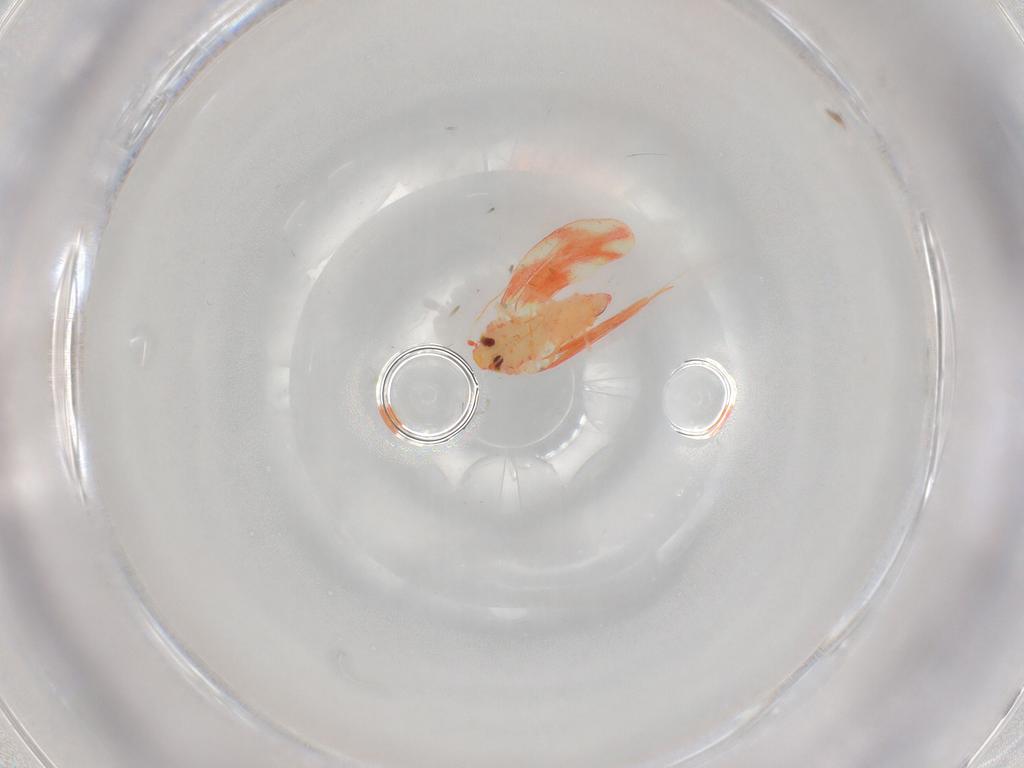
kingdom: Animalia
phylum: Arthropoda
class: Insecta
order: Hemiptera
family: Aleyrodidae
